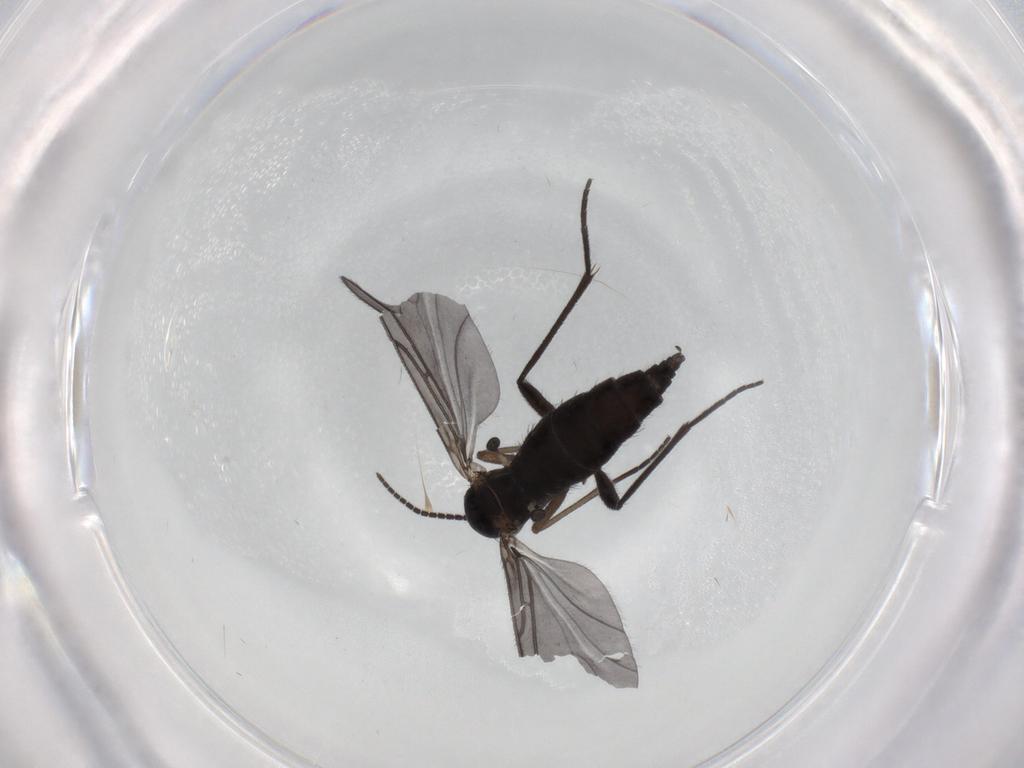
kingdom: Animalia
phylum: Arthropoda
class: Insecta
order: Diptera
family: Sciaridae
